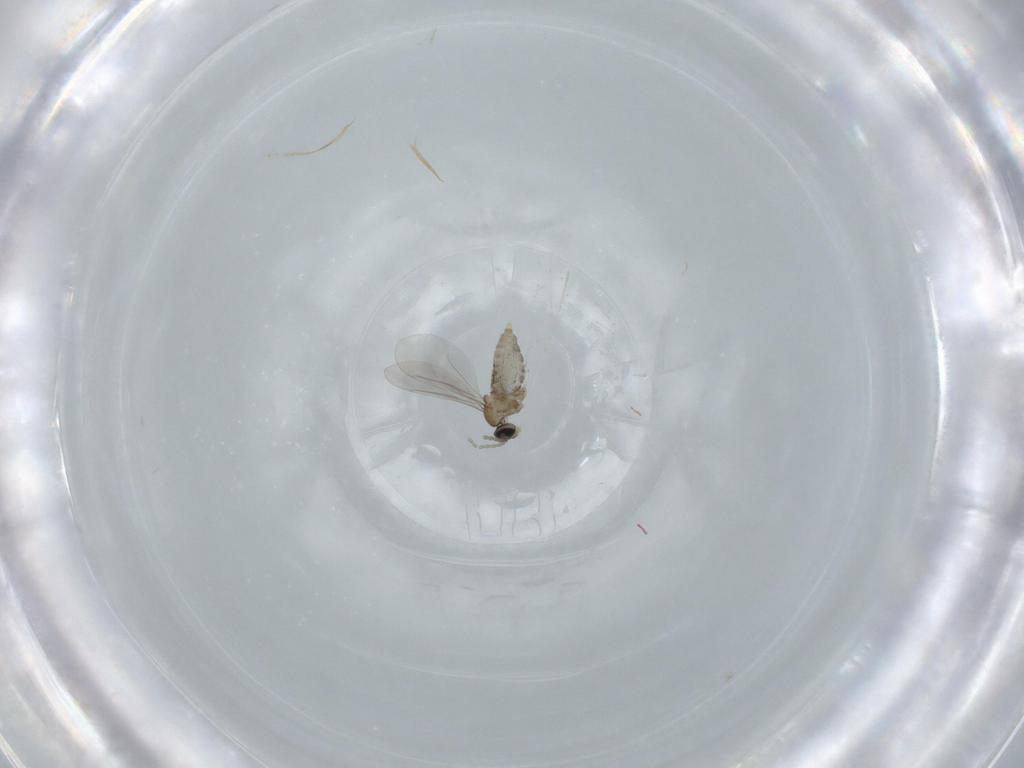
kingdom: Animalia
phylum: Arthropoda
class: Insecta
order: Diptera
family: Cecidomyiidae
